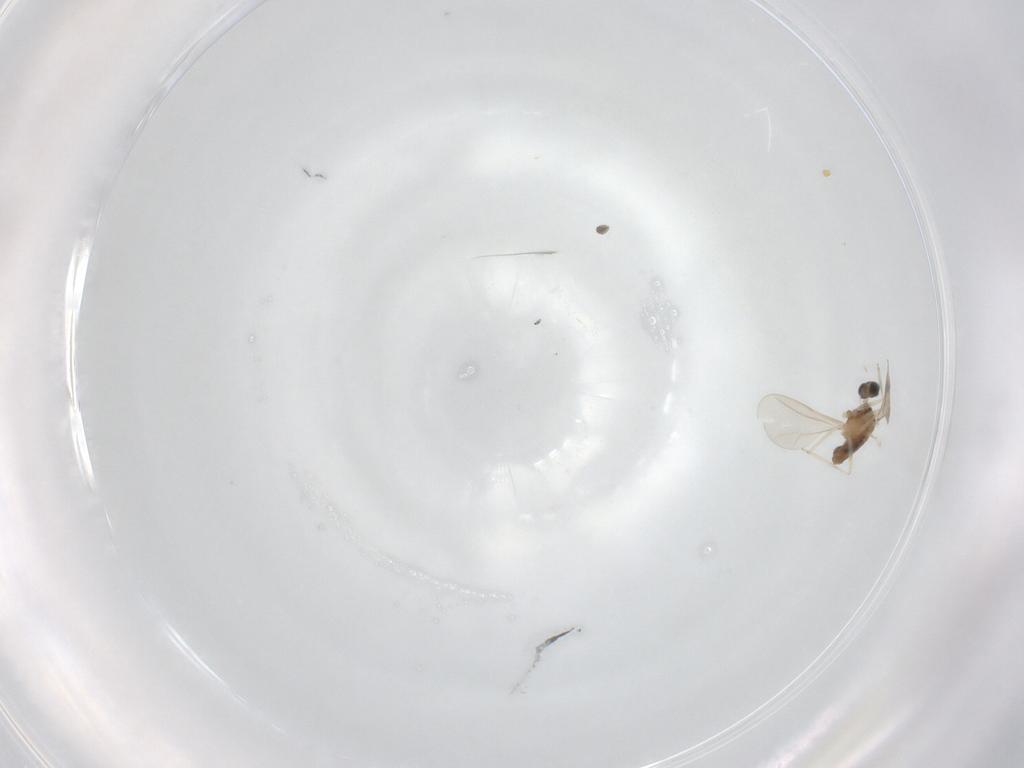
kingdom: Animalia
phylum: Arthropoda
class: Insecta
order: Diptera
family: Cecidomyiidae
